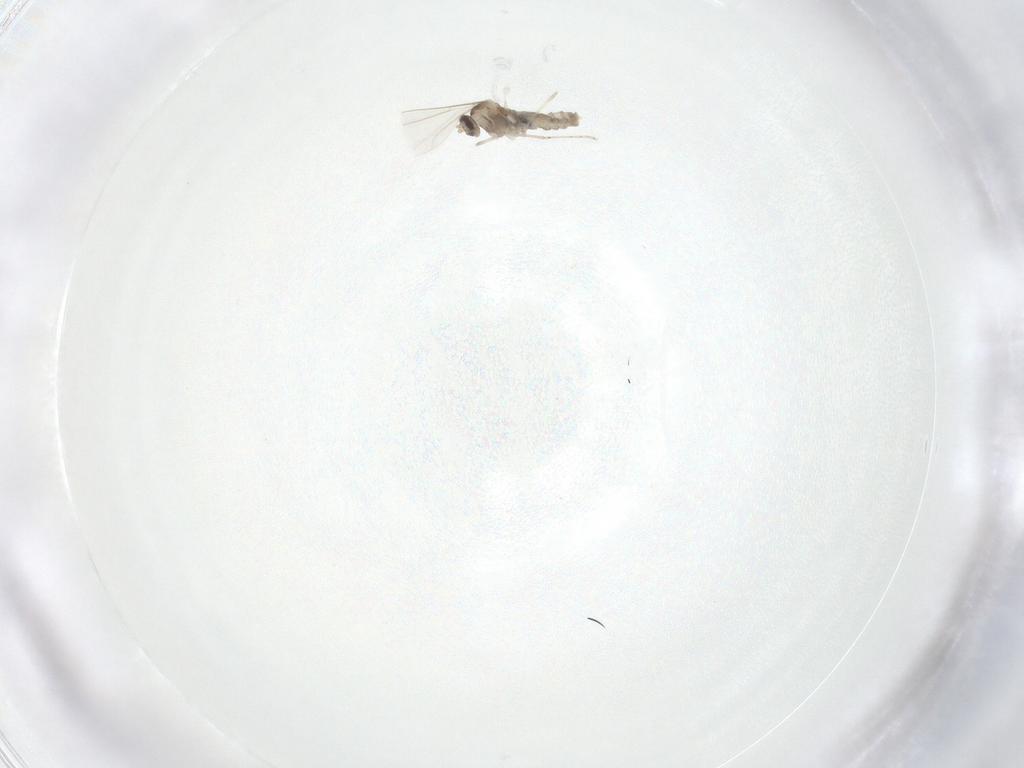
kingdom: Animalia
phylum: Arthropoda
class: Insecta
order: Diptera
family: Cecidomyiidae
